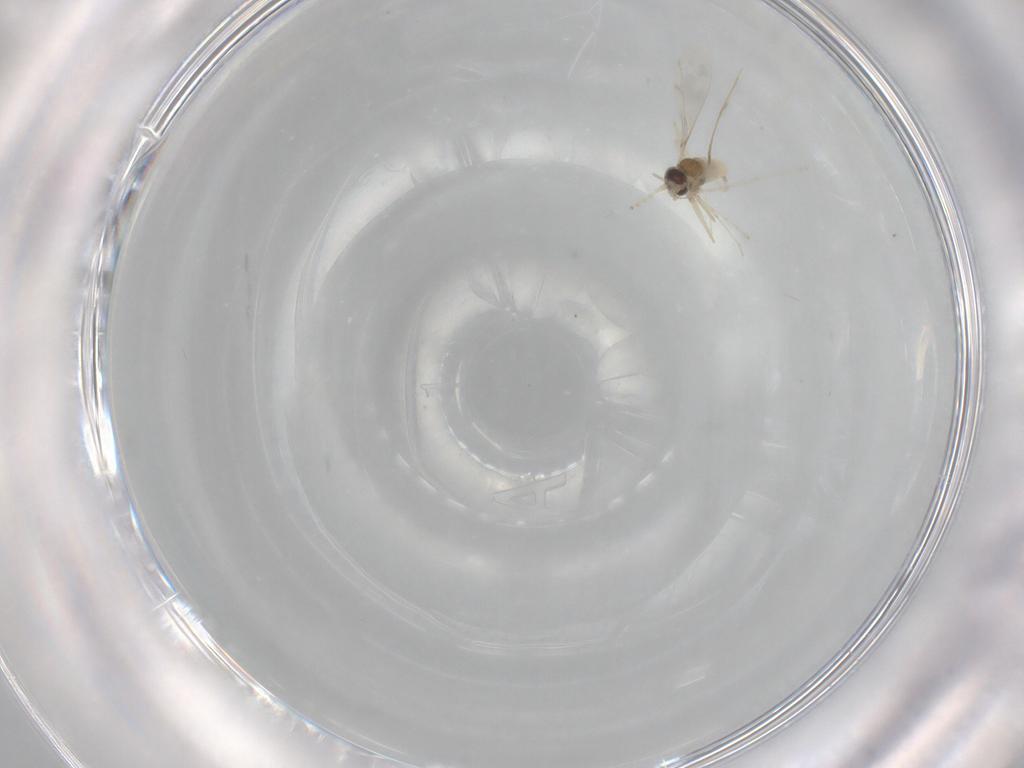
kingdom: Animalia
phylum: Arthropoda
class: Insecta
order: Diptera
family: Cecidomyiidae
